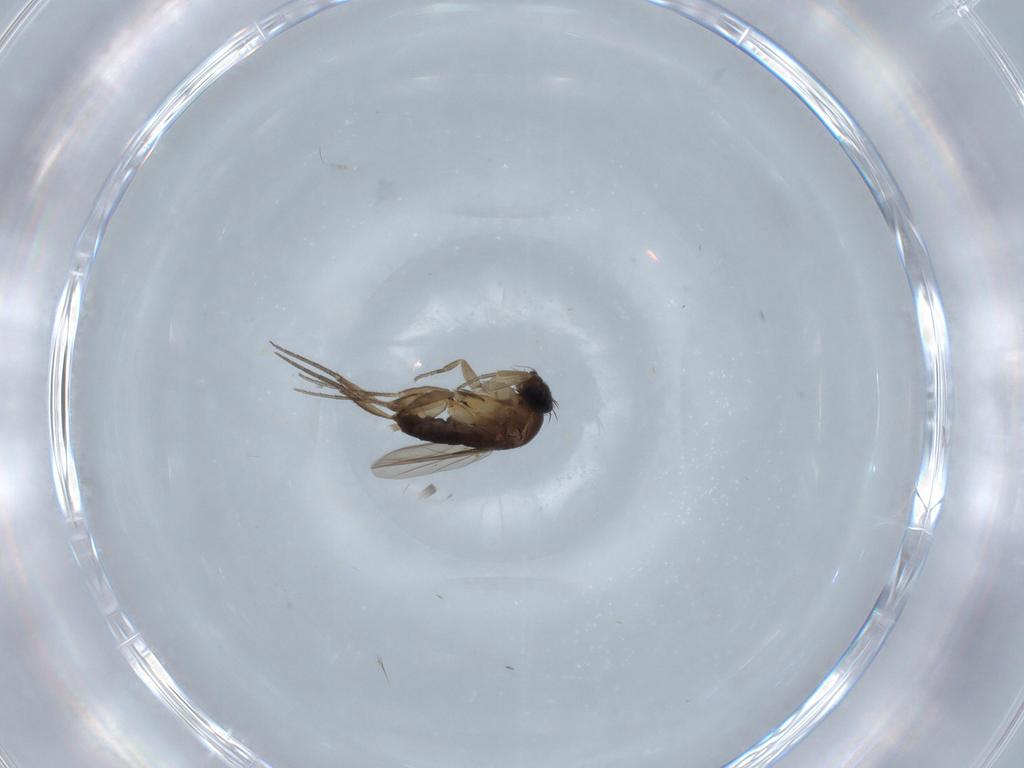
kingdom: Animalia
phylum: Arthropoda
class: Insecta
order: Diptera
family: Phoridae
